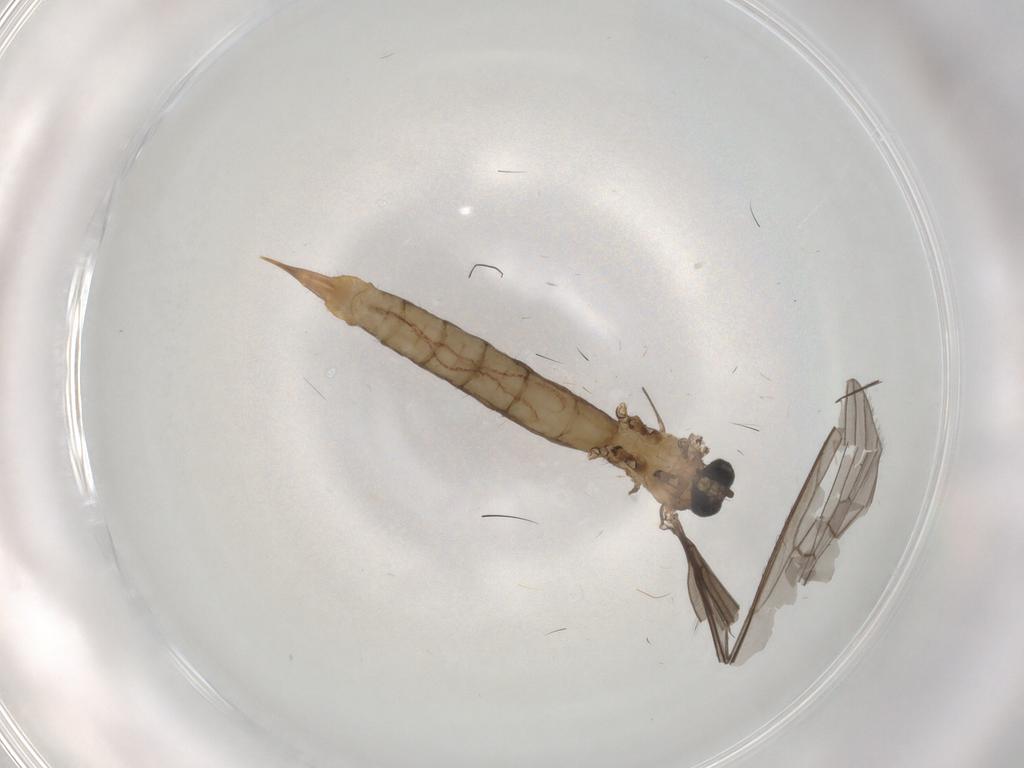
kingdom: Animalia
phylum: Arthropoda
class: Insecta
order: Diptera
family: Limoniidae
